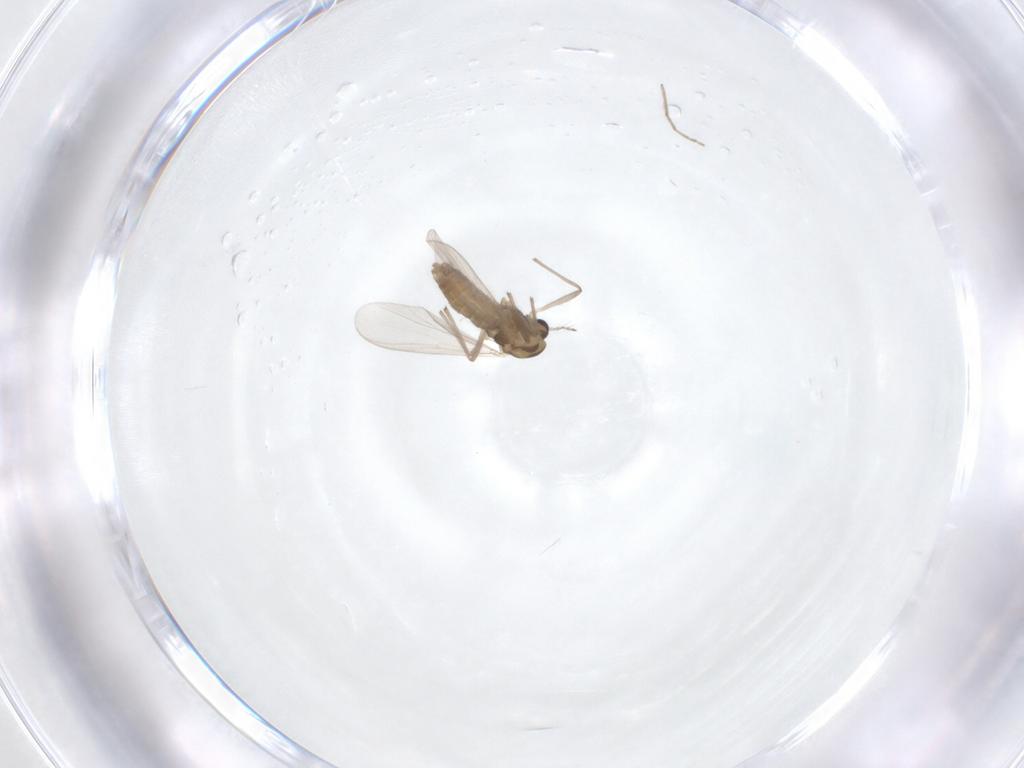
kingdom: Animalia
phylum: Arthropoda
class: Insecta
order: Diptera
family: Chironomidae
